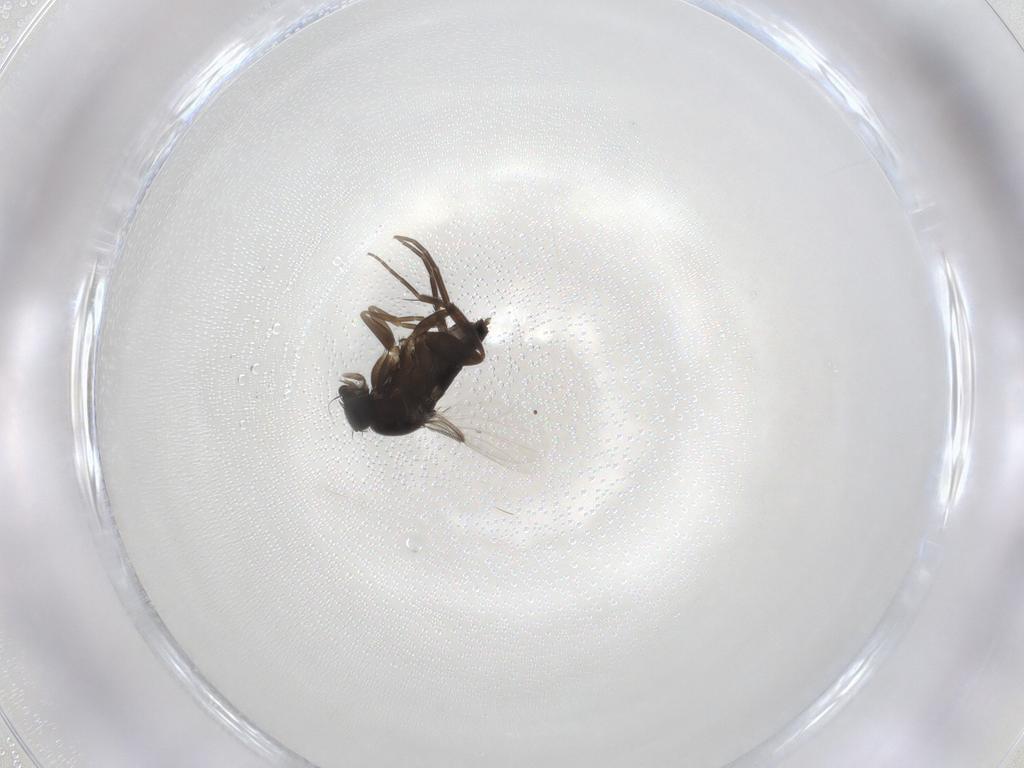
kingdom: Animalia
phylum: Arthropoda
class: Insecta
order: Diptera
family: Phoridae
